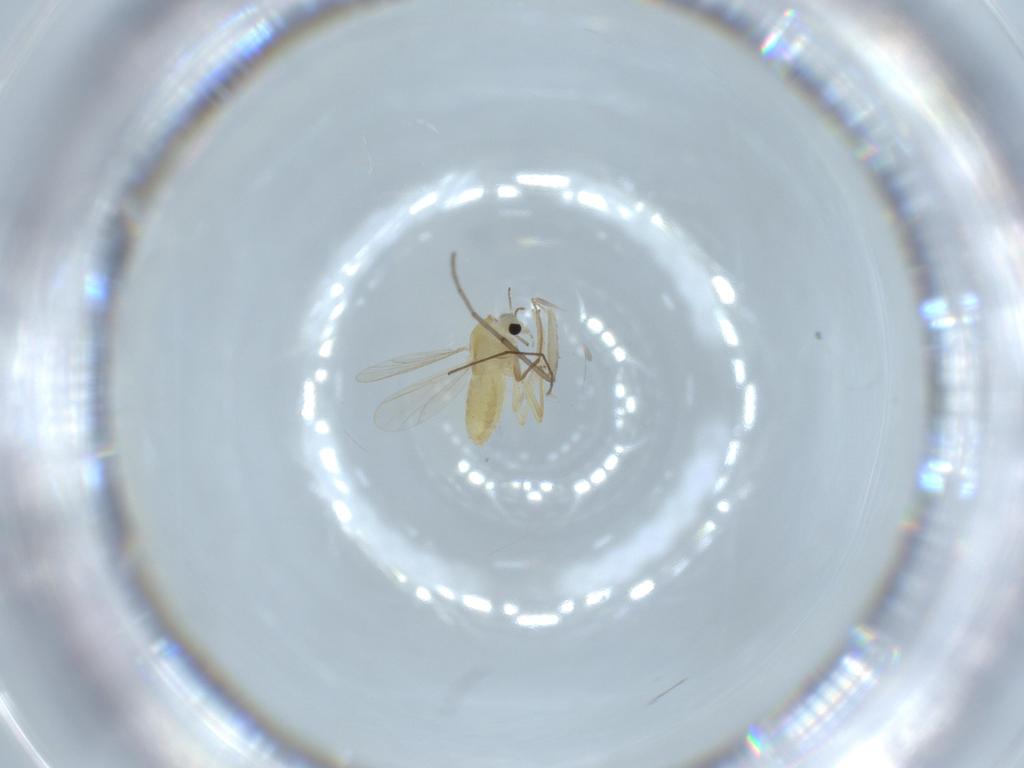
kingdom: Animalia
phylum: Arthropoda
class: Insecta
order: Diptera
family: Chironomidae
